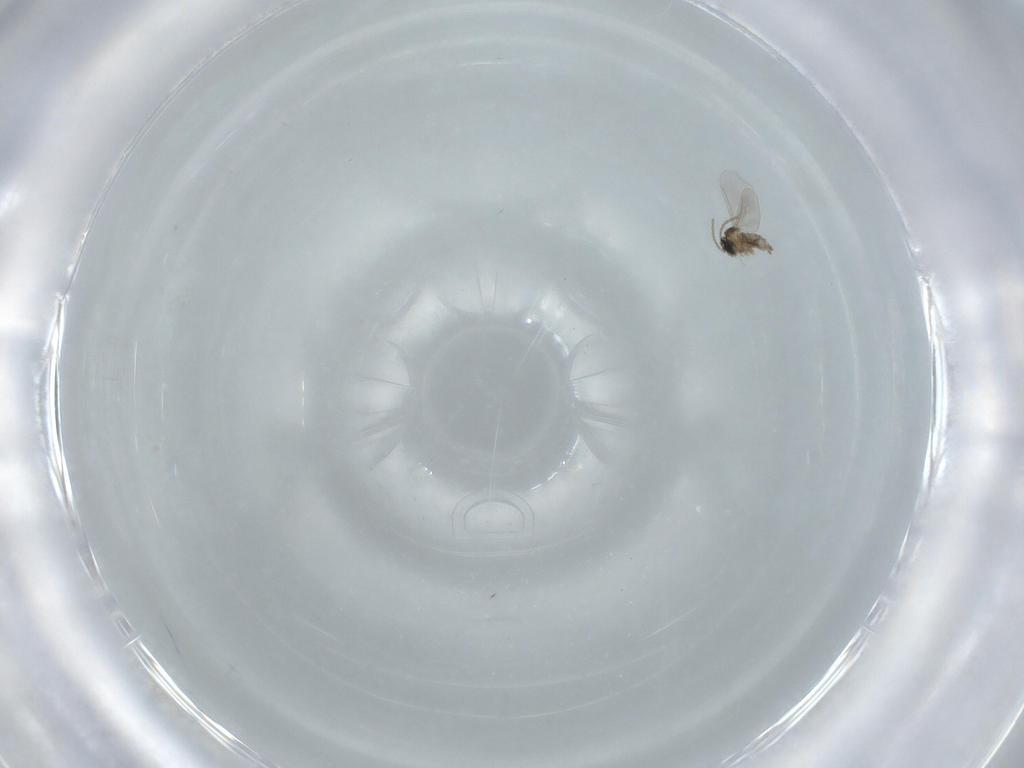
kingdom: Animalia
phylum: Arthropoda
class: Insecta
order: Diptera
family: Cecidomyiidae
